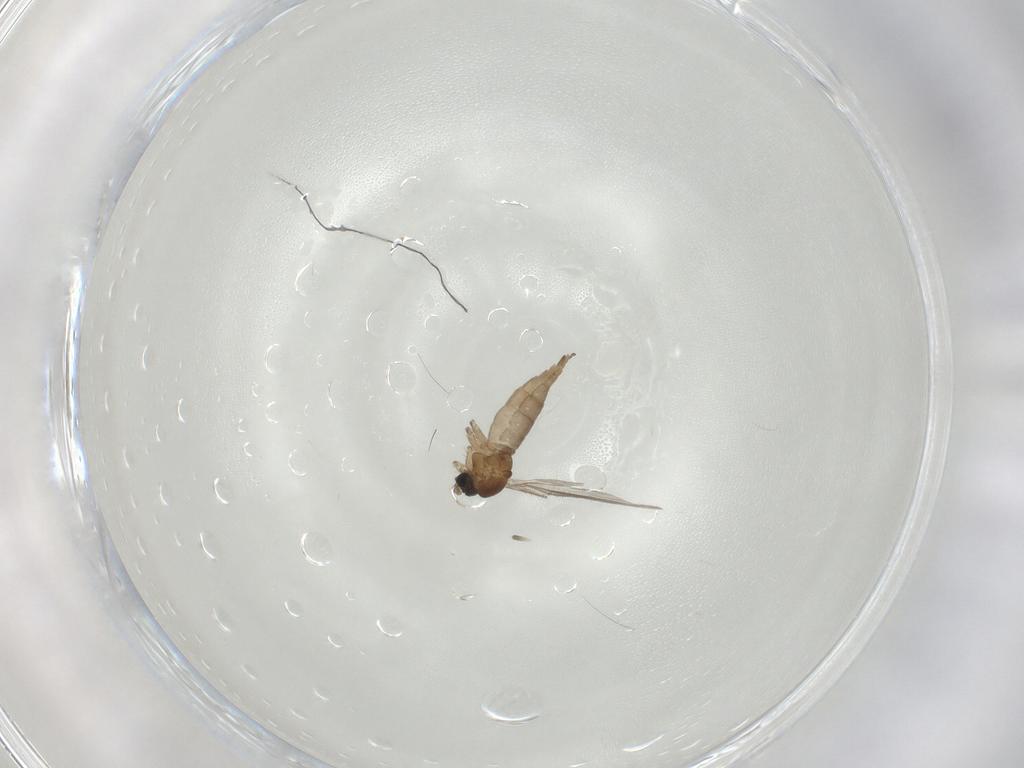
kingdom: Animalia
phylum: Arthropoda
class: Insecta
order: Diptera
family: Sciaridae
